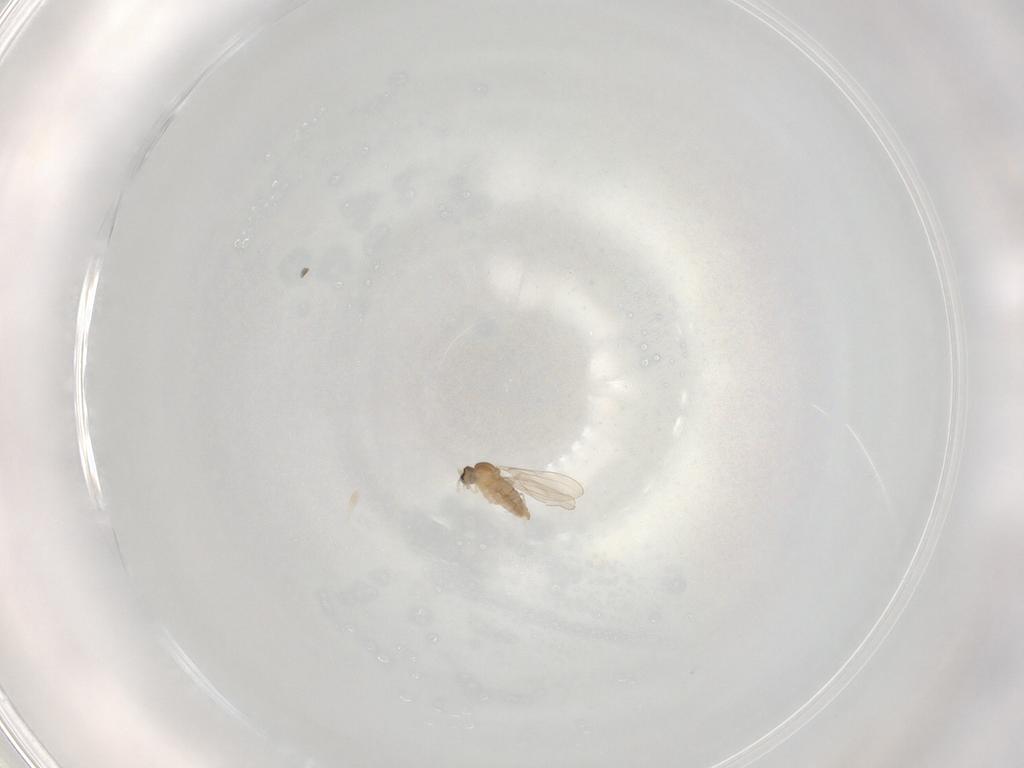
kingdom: Animalia
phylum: Arthropoda
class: Insecta
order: Diptera
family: Cecidomyiidae
